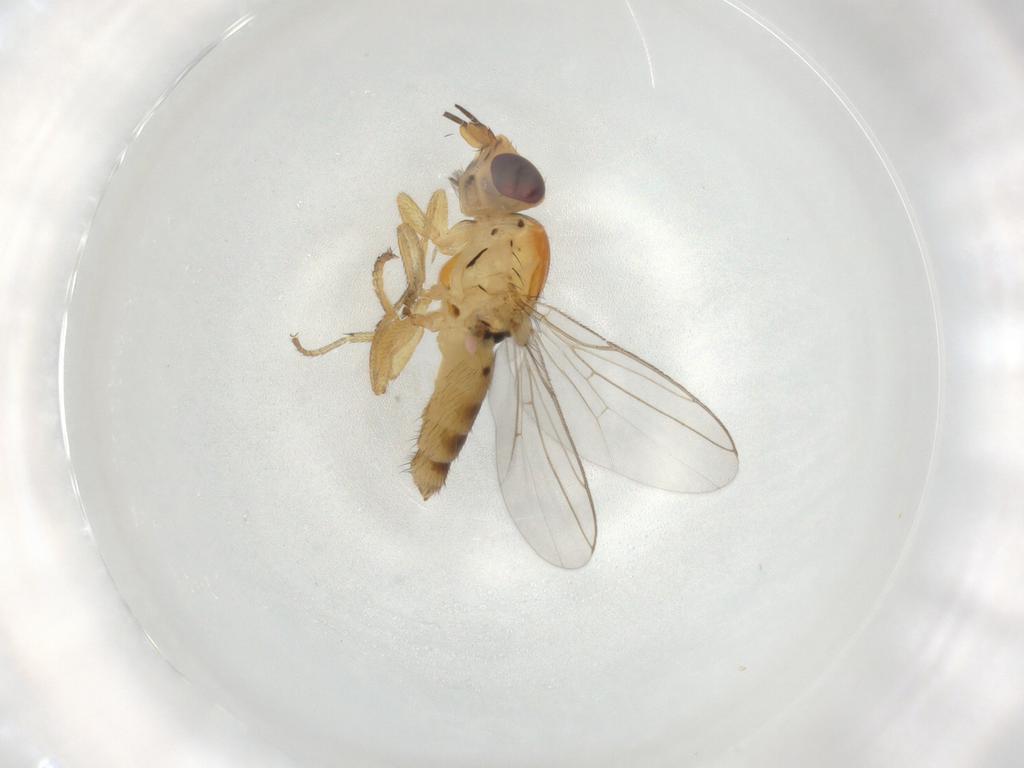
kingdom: Animalia
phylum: Arthropoda
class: Insecta
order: Diptera
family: Chloropidae
